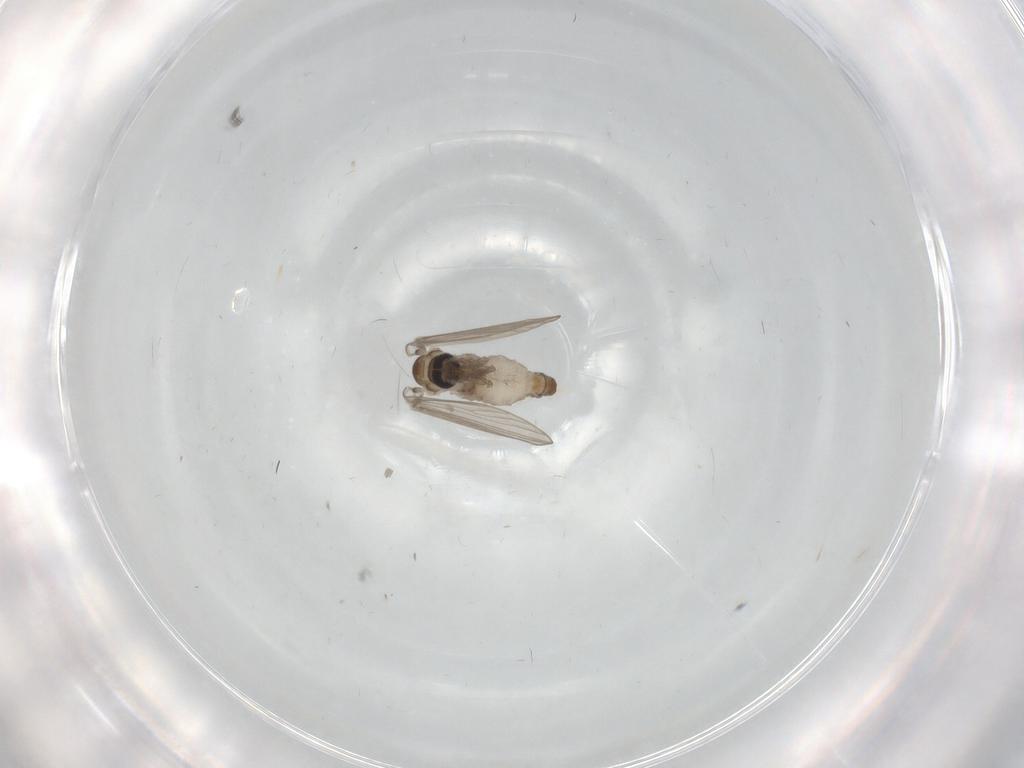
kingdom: Animalia
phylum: Arthropoda
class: Insecta
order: Diptera
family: Psychodidae
